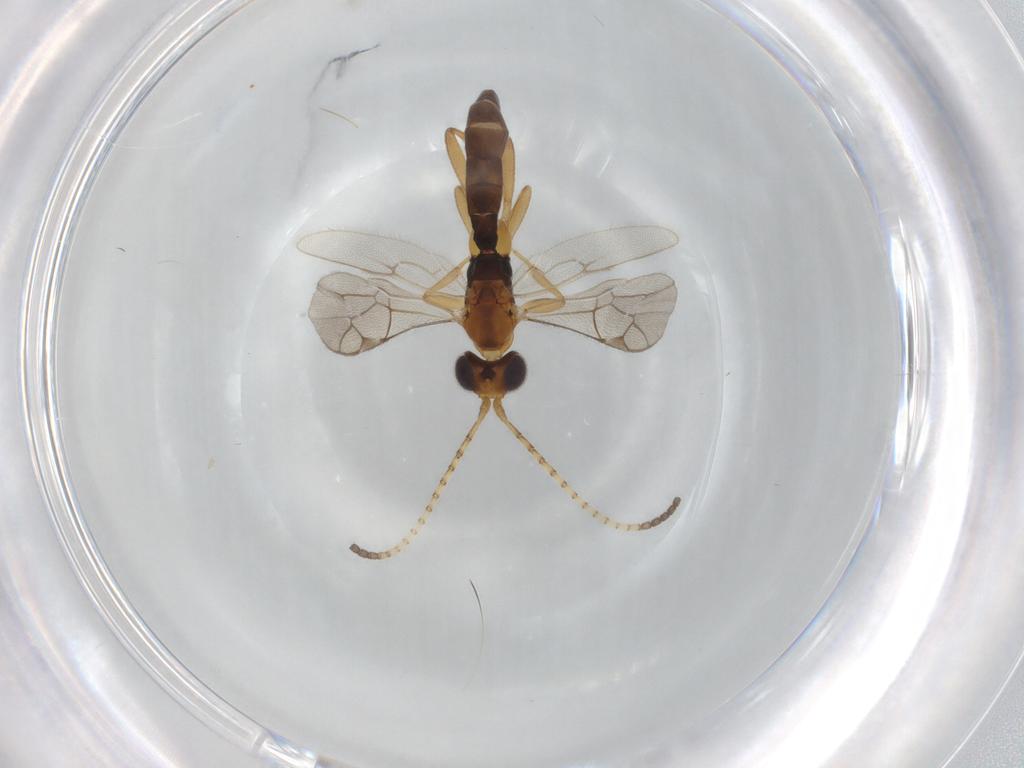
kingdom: Animalia
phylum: Arthropoda
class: Insecta
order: Hymenoptera
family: Ichneumonidae
